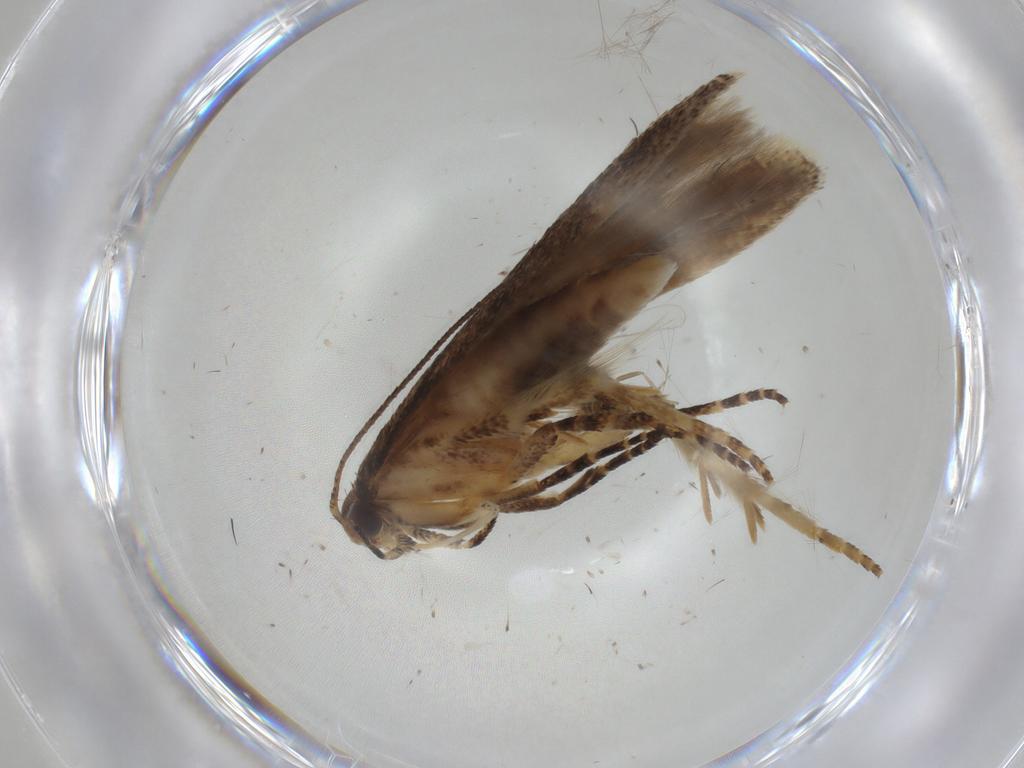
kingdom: Animalia
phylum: Arthropoda
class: Insecta
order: Lepidoptera
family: Gelechiidae
